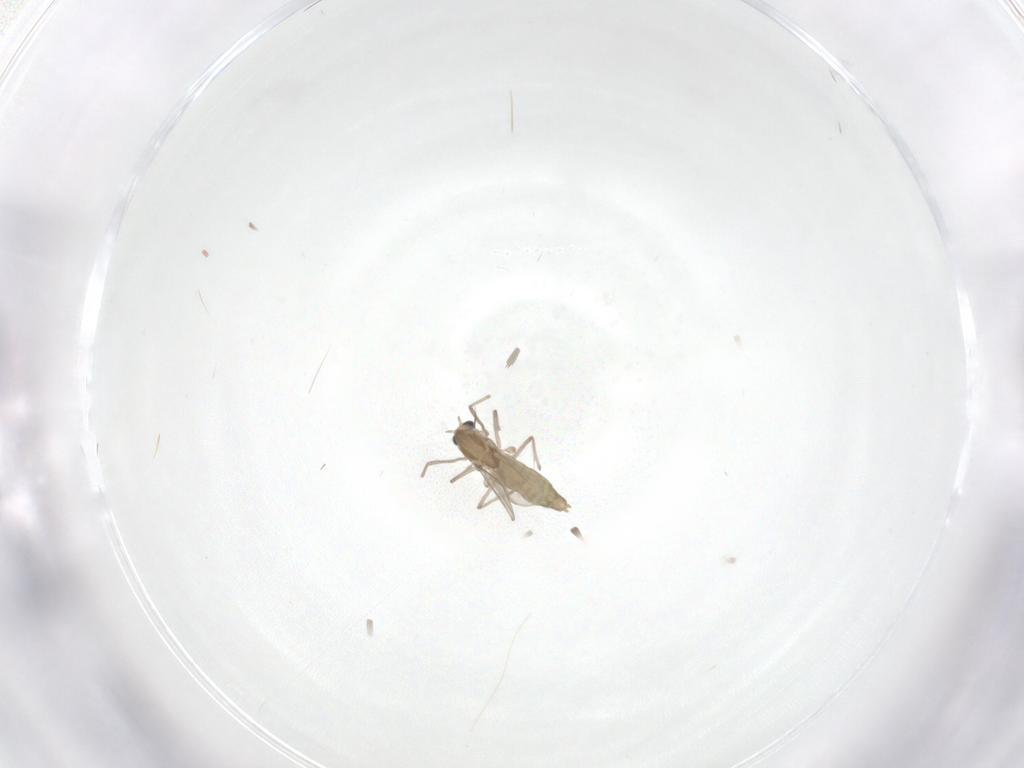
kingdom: Animalia
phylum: Arthropoda
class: Insecta
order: Diptera
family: Chironomidae
